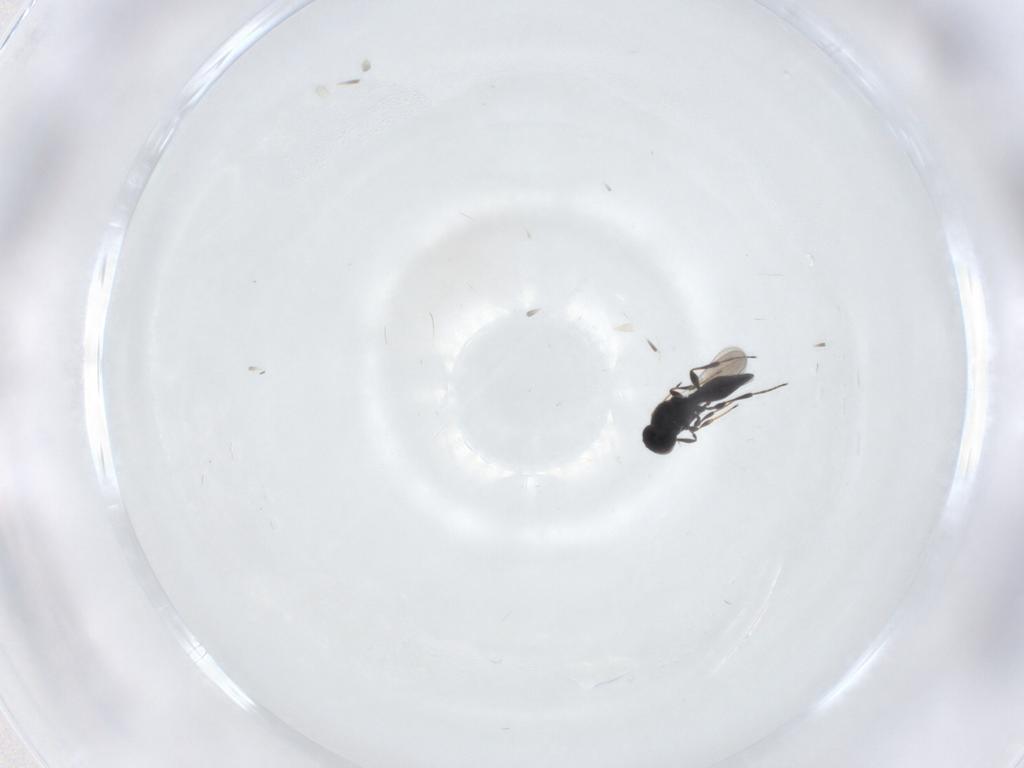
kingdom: Animalia
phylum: Arthropoda
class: Insecta
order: Hymenoptera
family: Platygastridae
